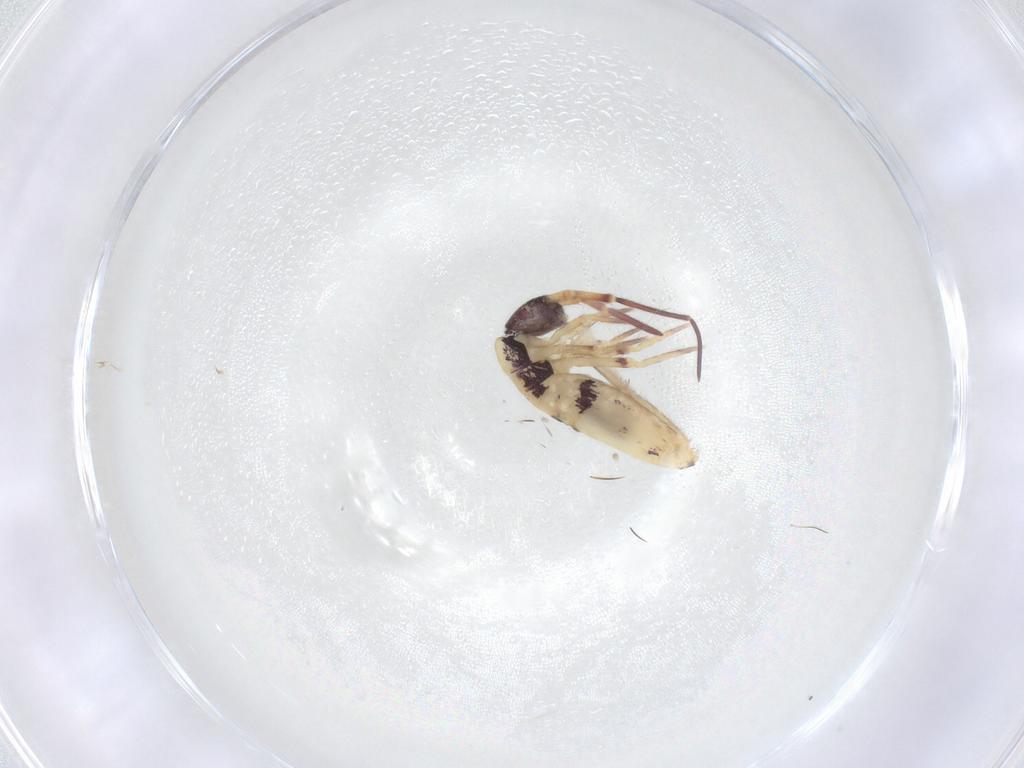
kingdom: Animalia
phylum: Arthropoda
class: Collembola
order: Entomobryomorpha
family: Entomobryidae
